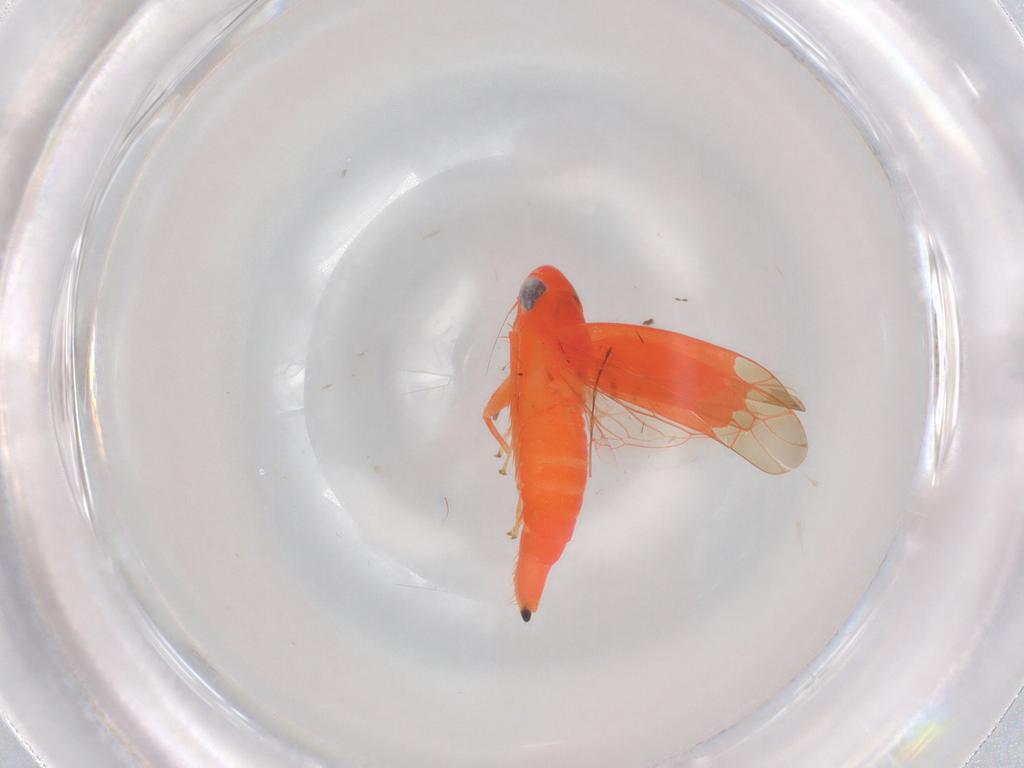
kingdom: Animalia
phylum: Arthropoda
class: Insecta
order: Hemiptera
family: Cicadellidae
